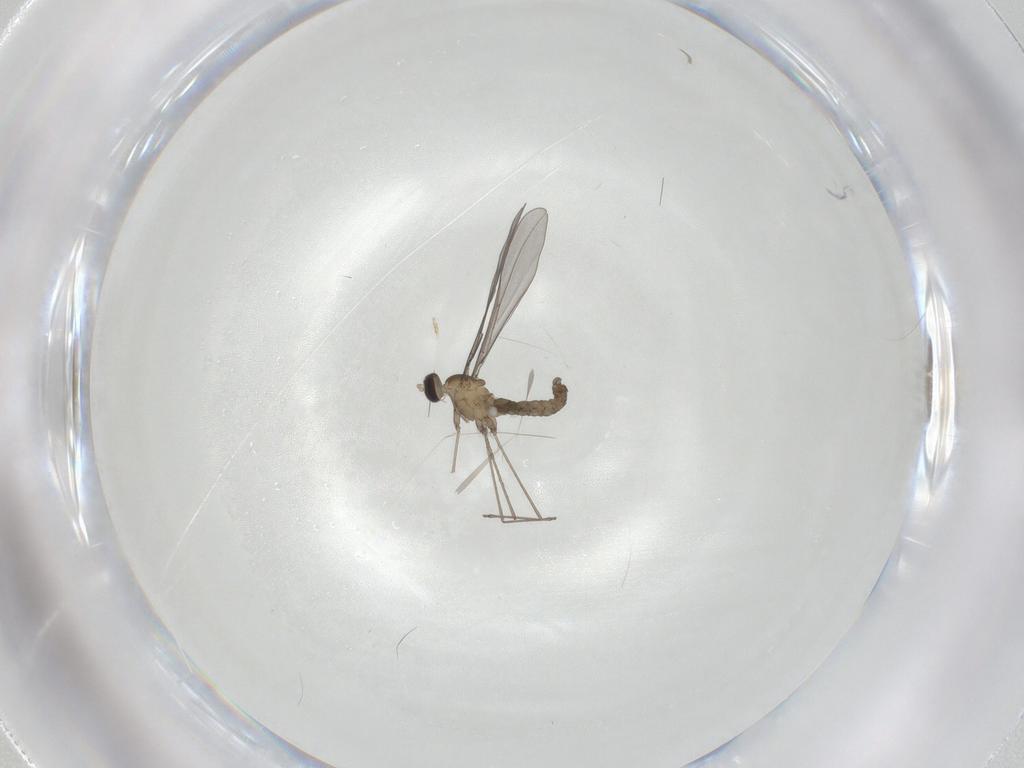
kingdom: Animalia
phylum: Arthropoda
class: Insecta
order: Diptera
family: Cecidomyiidae
